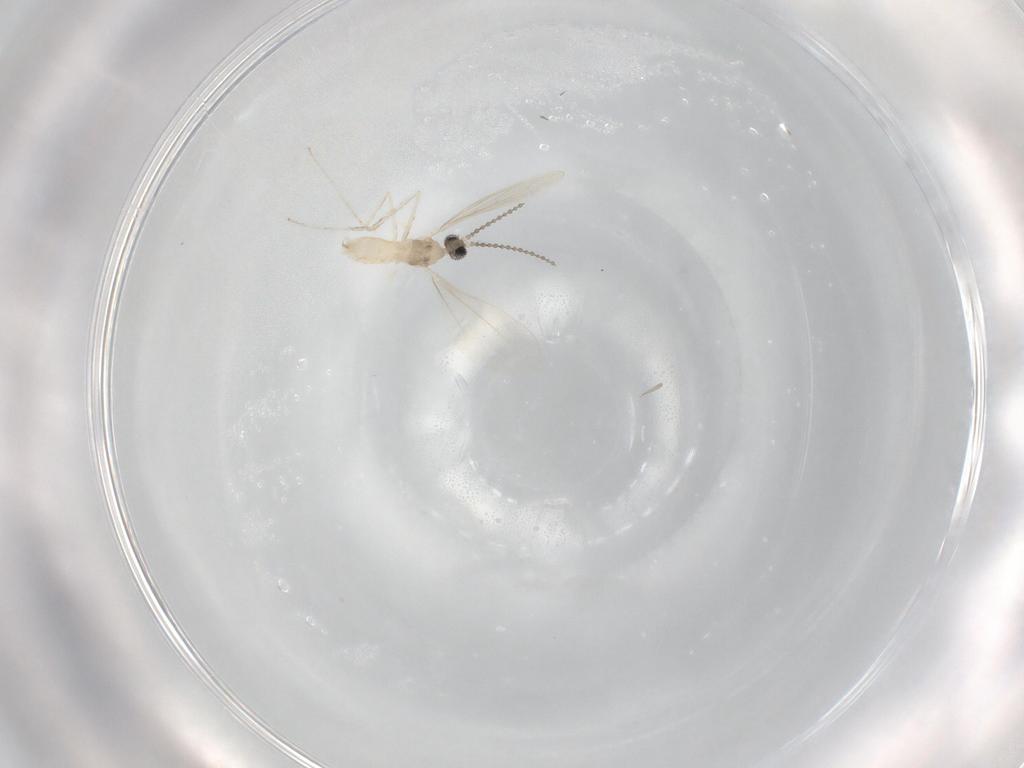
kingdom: Animalia
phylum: Arthropoda
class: Insecta
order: Diptera
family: Cecidomyiidae
